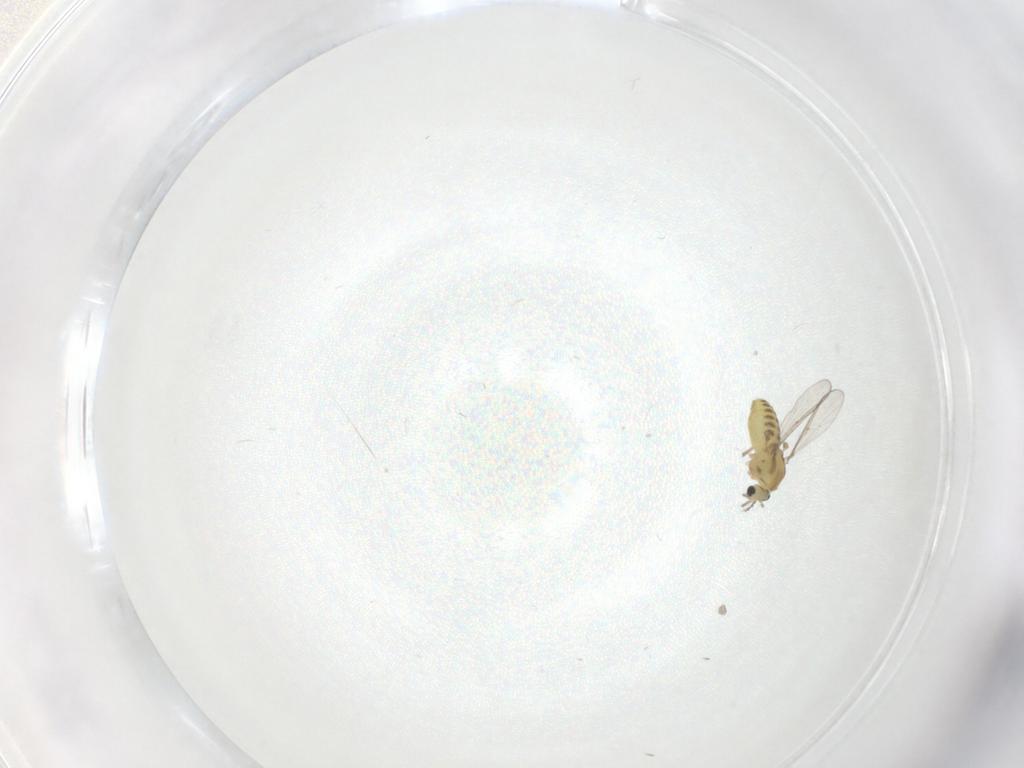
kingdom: Animalia
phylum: Arthropoda
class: Insecta
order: Diptera
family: Chironomidae
